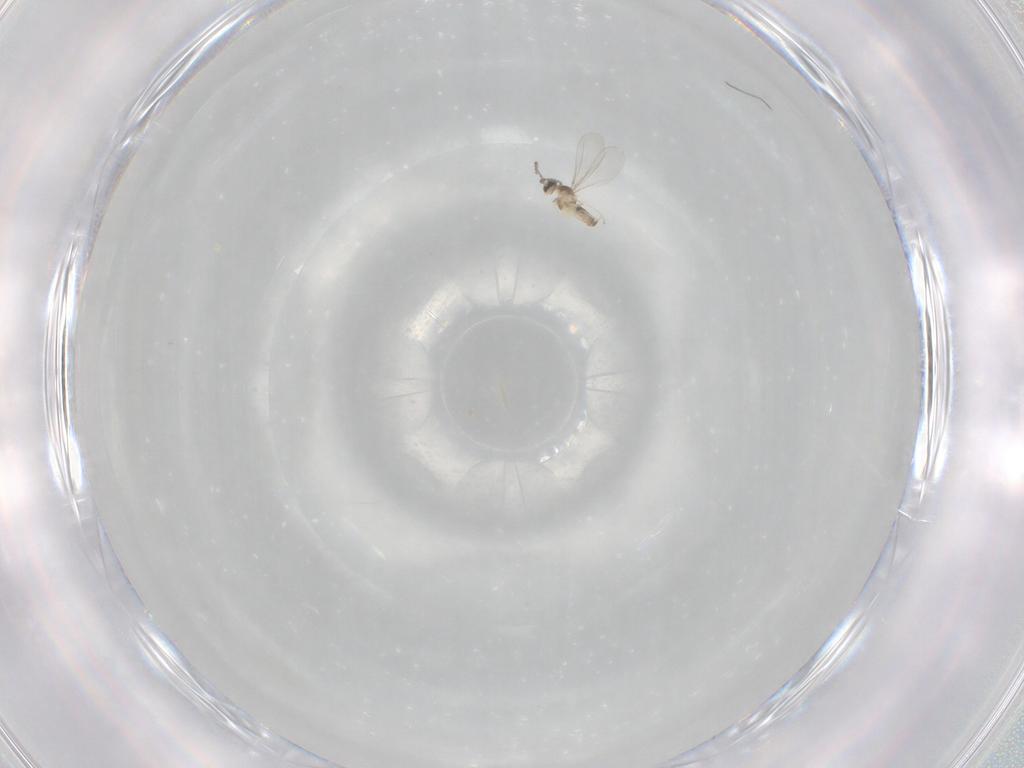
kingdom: Animalia
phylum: Arthropoda
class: Insecta
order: Diptera
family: Cecidomyiidae
